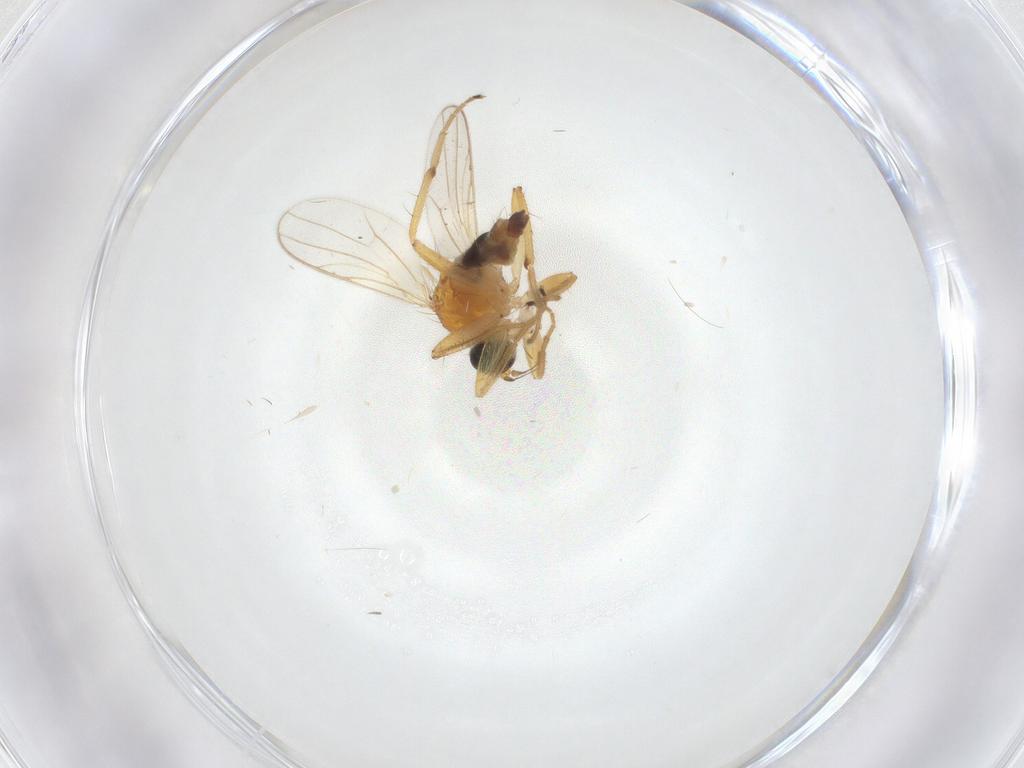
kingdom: Animalia
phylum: Arthropoda
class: Insecta
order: Diptera
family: Hybotidae
